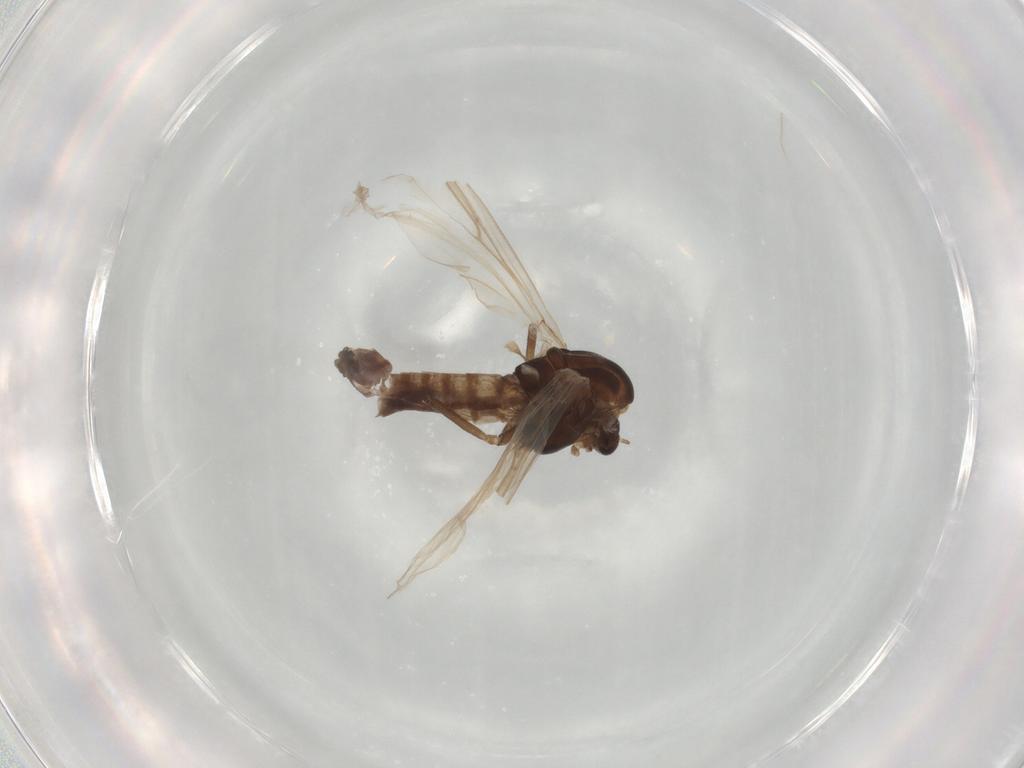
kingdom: Animalia
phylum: Arthropoda
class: Insecta
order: Diptera
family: Chironomidae
